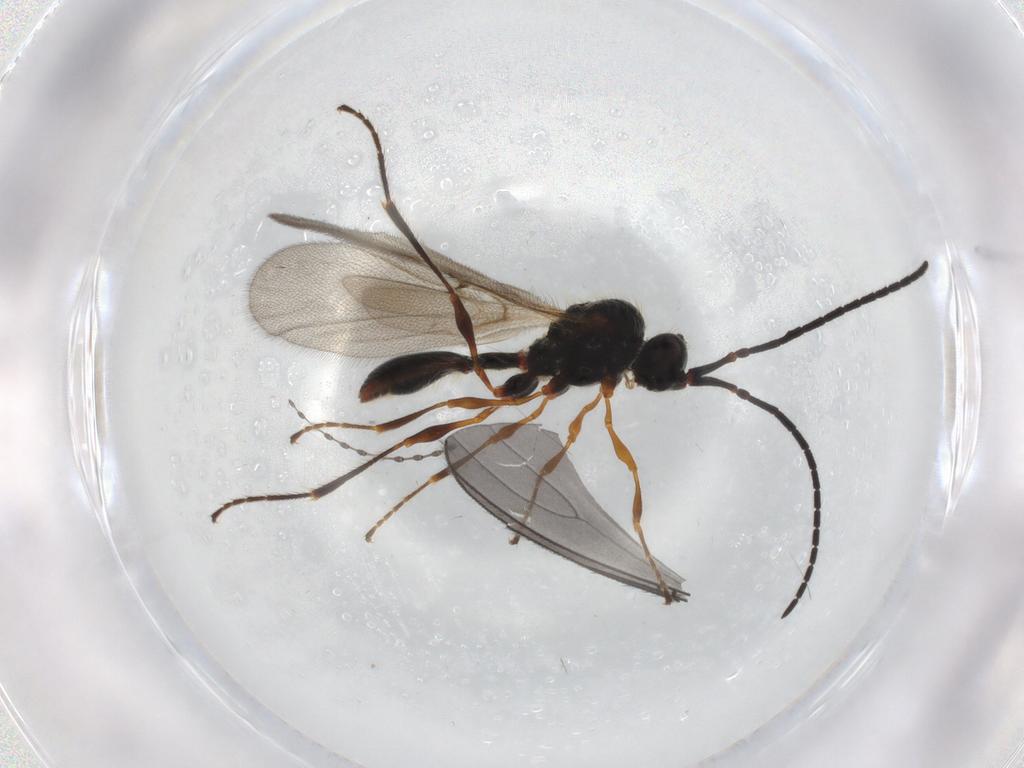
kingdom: Animalia
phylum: Arthropoda
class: Insecta
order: Hymenoptera
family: Diapriidae
